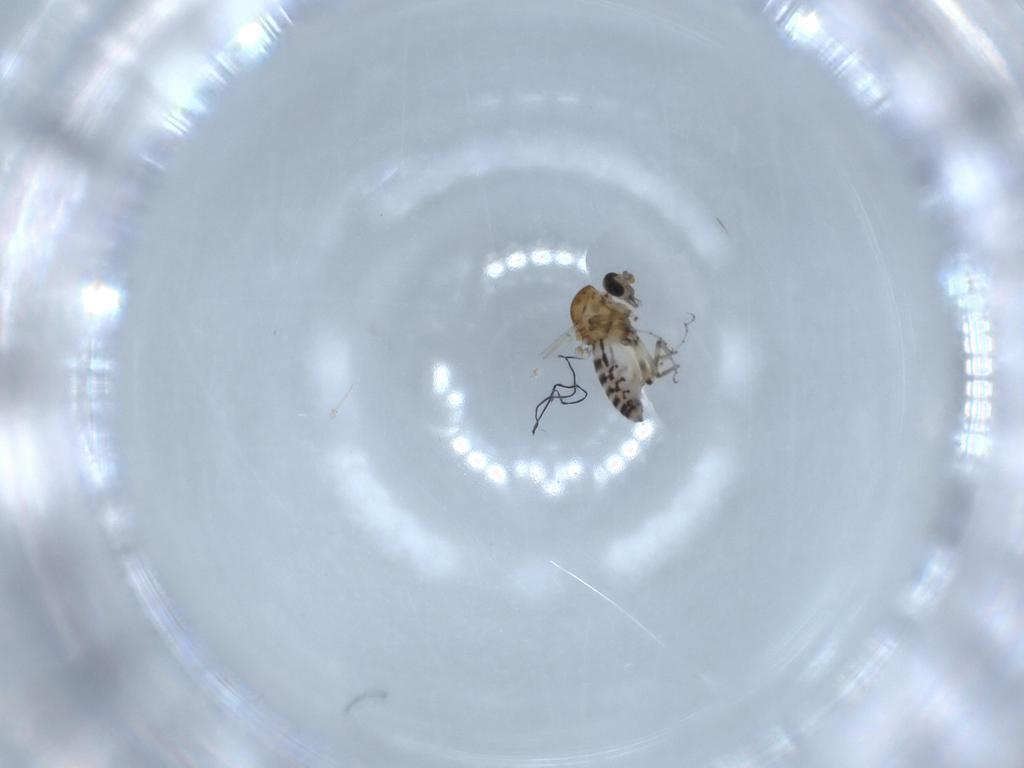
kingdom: Animalia
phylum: Arthropoda
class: Insecta
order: Diptera
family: Ceratopogonidae
